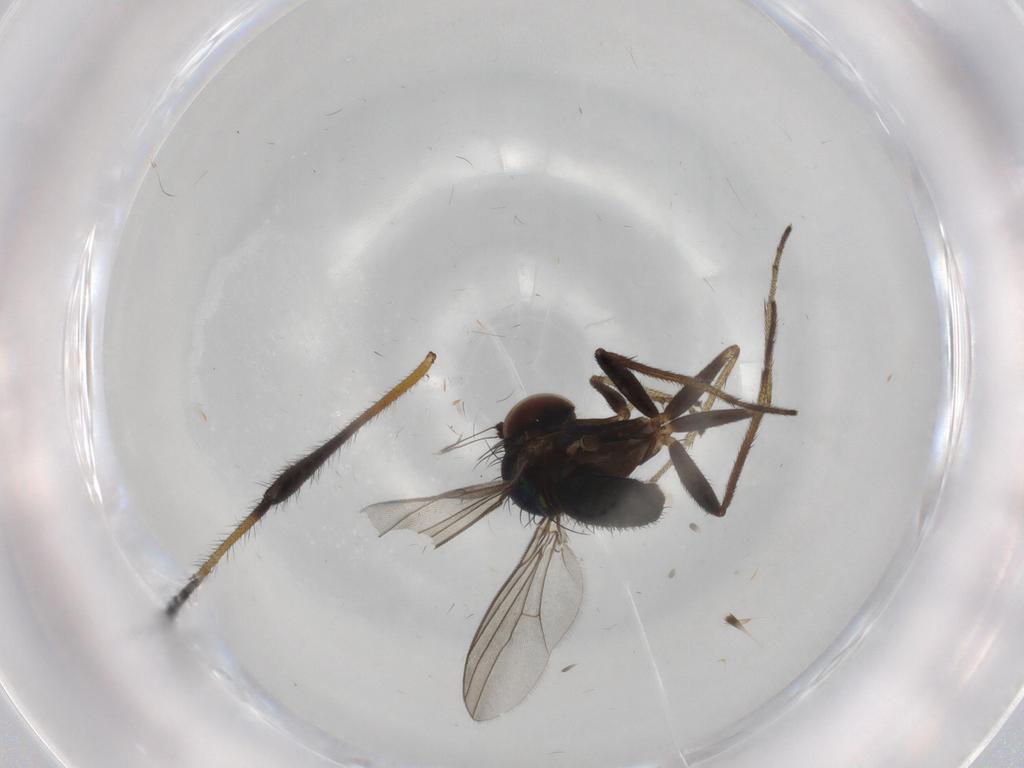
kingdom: Animalia
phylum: Arthropoda
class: Insecta
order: Diptera
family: Limoniidae
